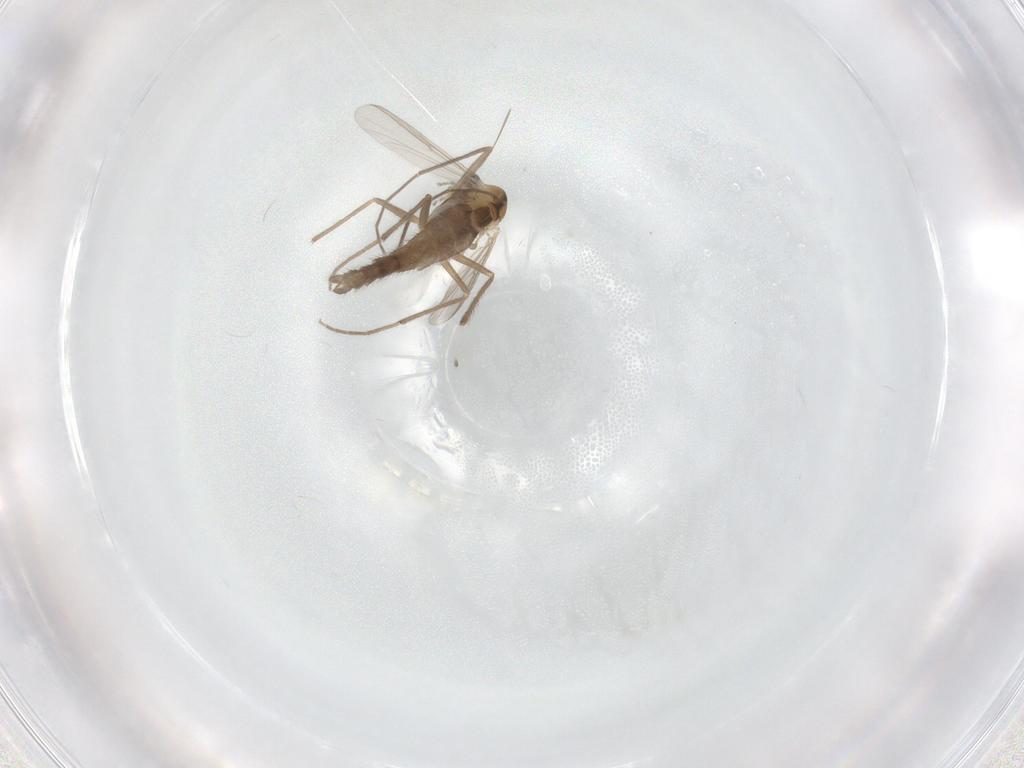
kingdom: Animalia
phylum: Arthropoda
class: Insecta
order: Diptera
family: Chironomidae
